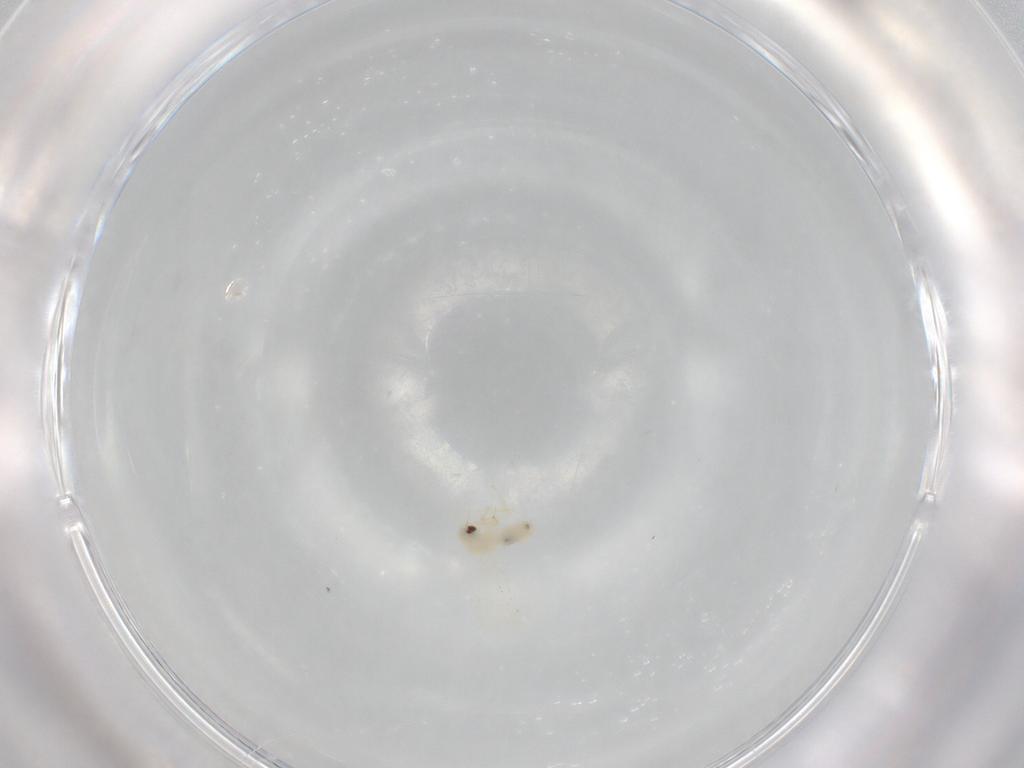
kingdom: Animalia
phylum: Arthropoda
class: Insecta
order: Hemiptera
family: Aleyrodidae
